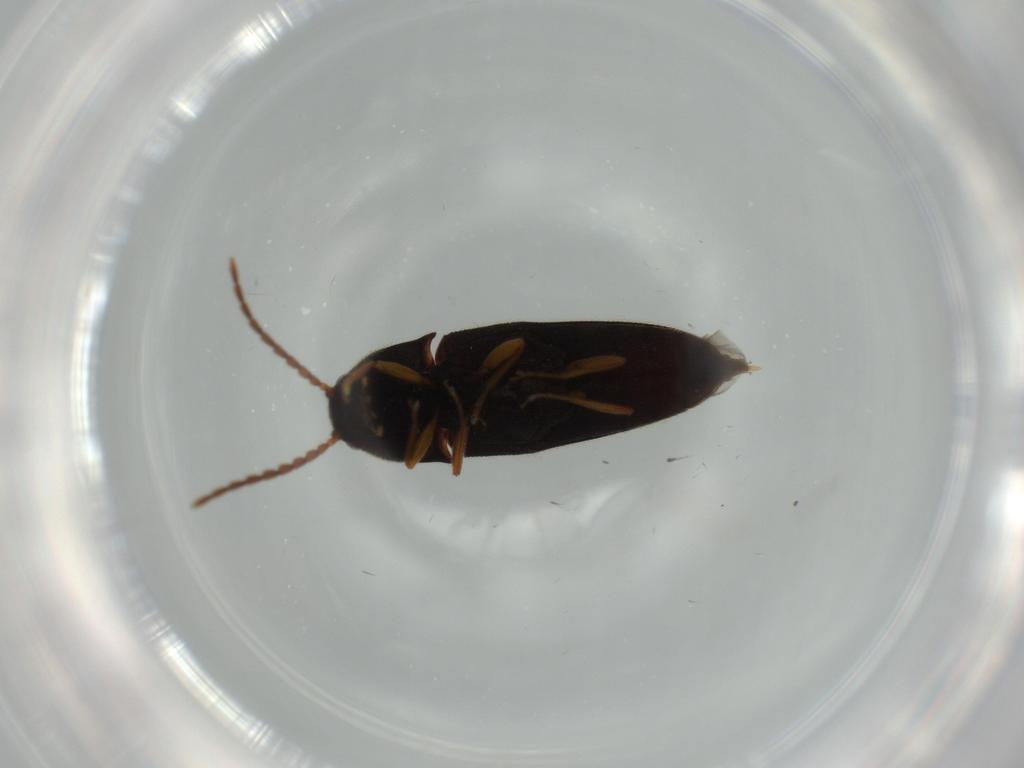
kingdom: Animalia
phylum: Arthropoda
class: Insecta
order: Coleoptera
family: Elateridae
